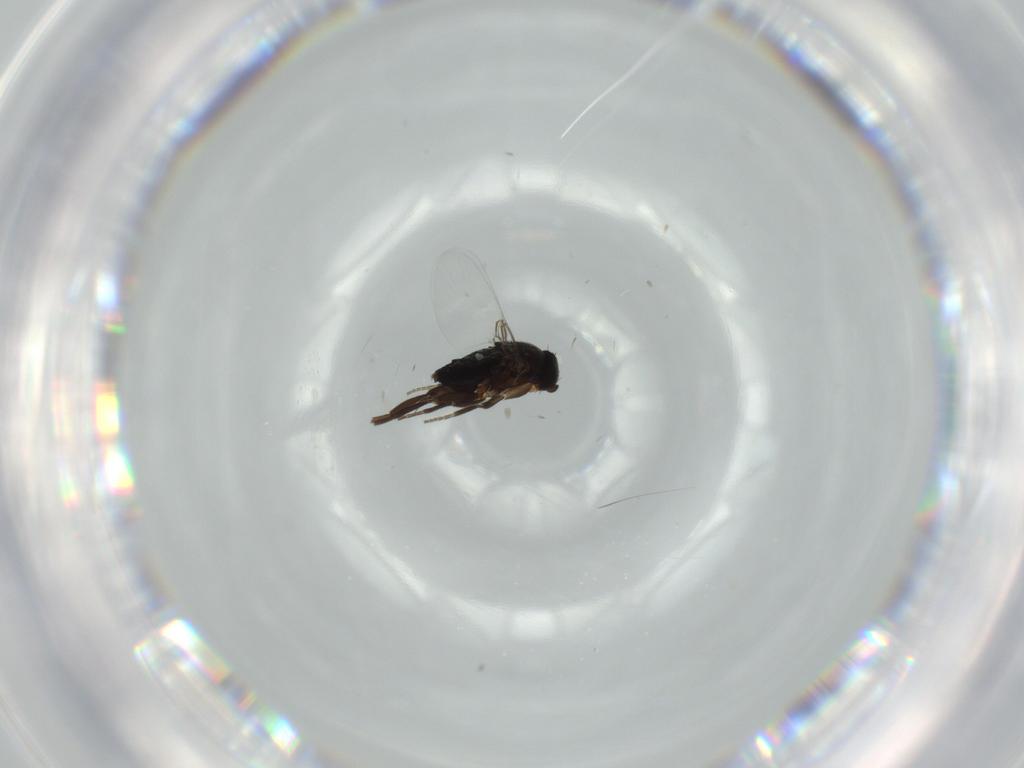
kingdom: Animalia
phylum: Arthropoda
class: Insecta
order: Diptera
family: Phoridae
